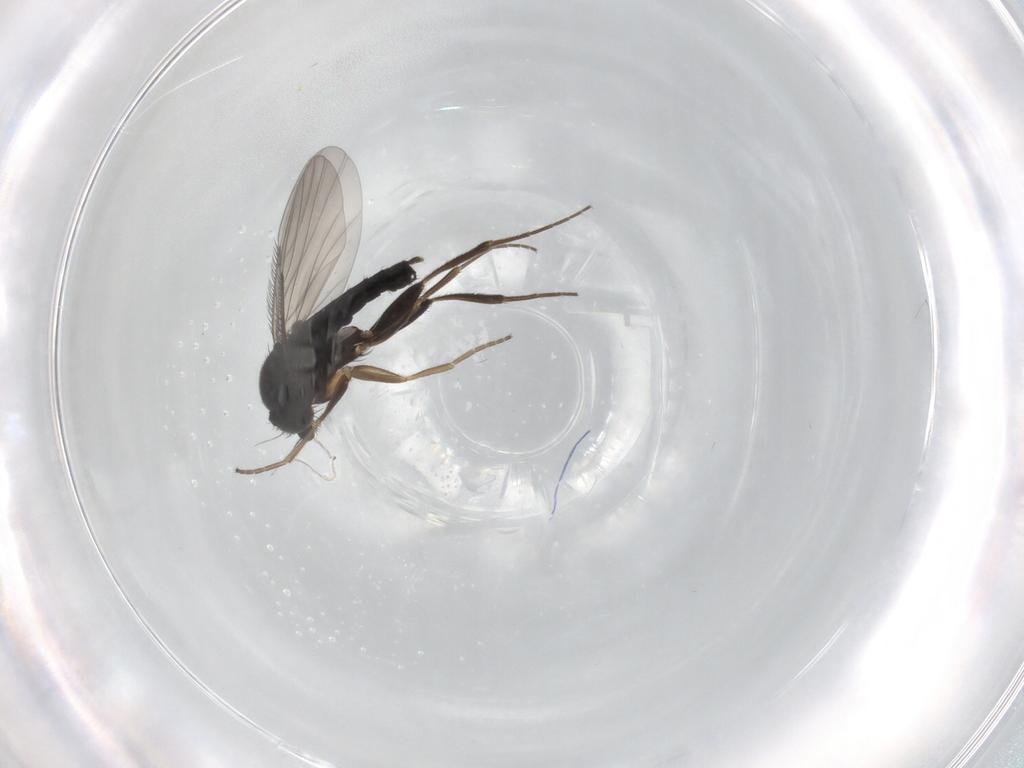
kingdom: Animalia
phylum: Arthropoda
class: Insecta
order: Diptera
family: Phoridae
